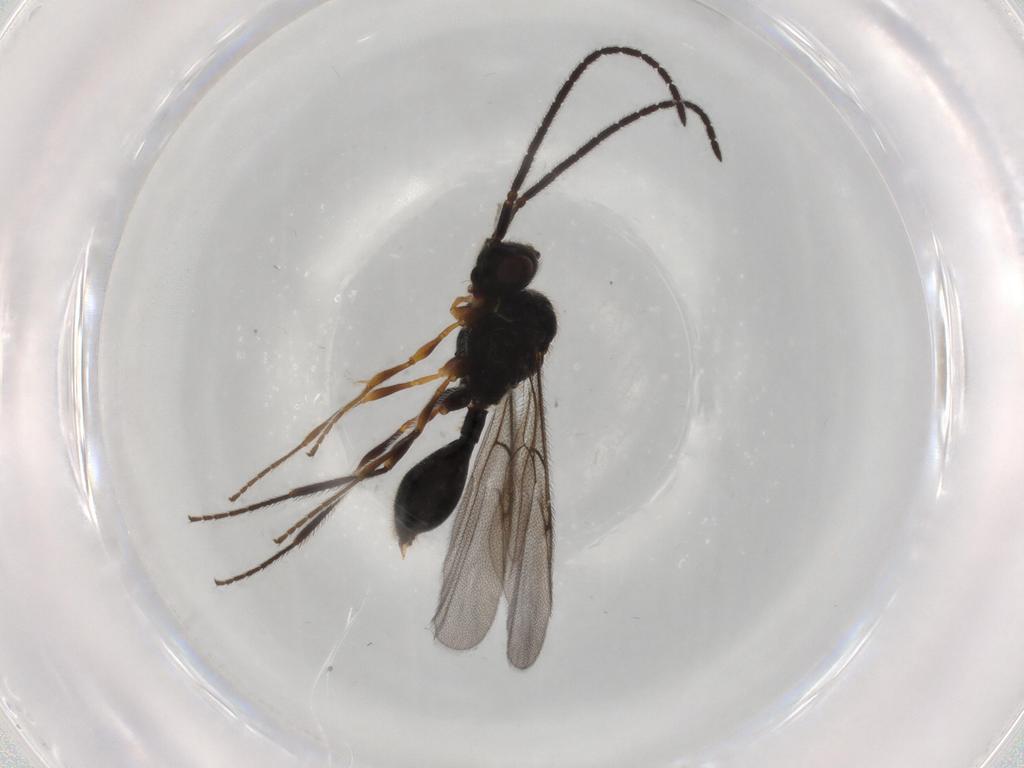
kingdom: Animalia
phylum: Arthropoda
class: Insecta
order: Hymenoptera
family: Diapriidae
